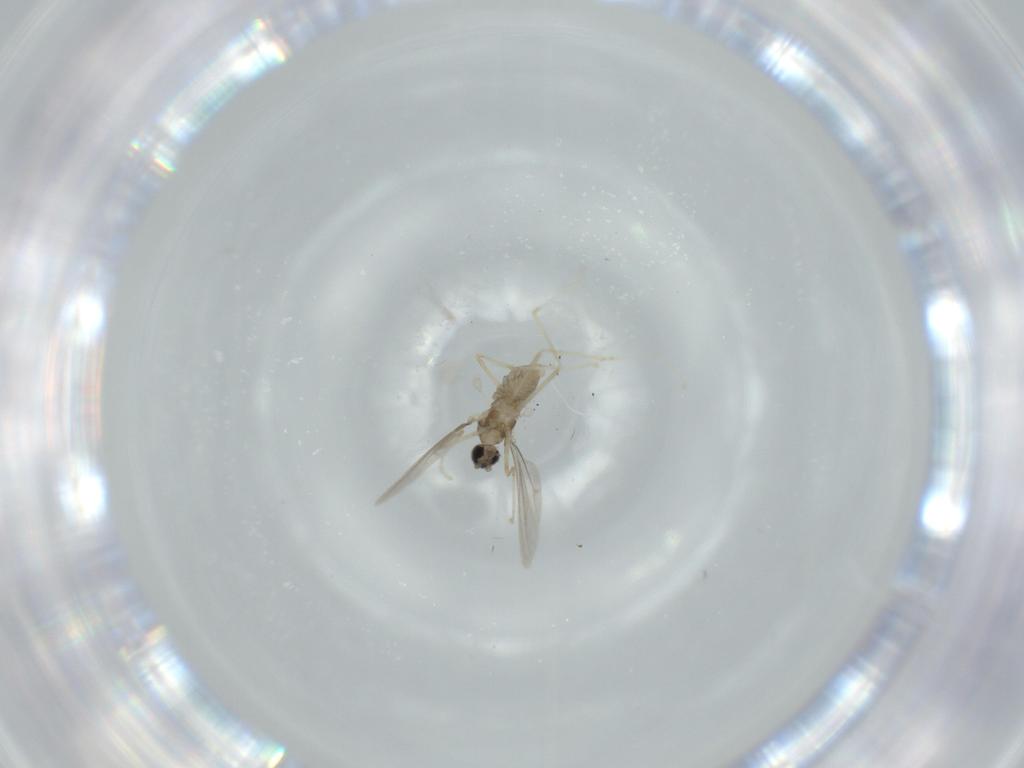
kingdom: Animalia
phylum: Arthropoda
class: Insecta
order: Diptera
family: Cecidomyiidae
